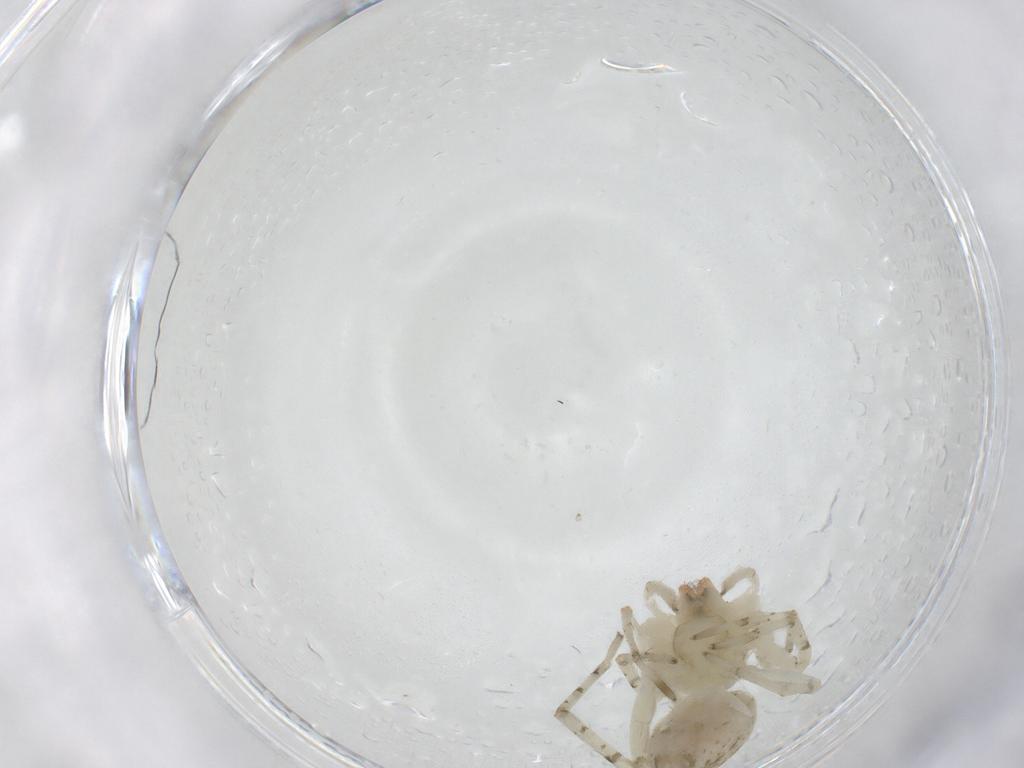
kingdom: Animalia
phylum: Arthropoda
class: Arachnida
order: Araneae
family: Anyphaenidae
